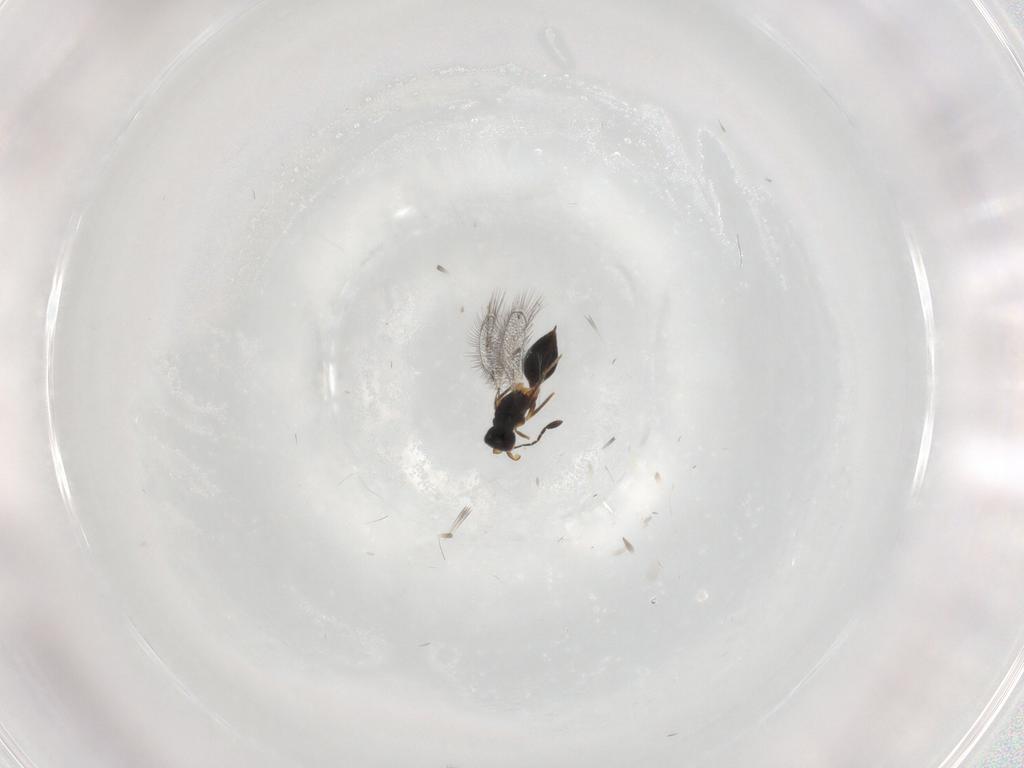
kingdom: Animalia
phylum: Arthropoda
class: Insecta
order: Hymenoptera
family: Mymaridae
